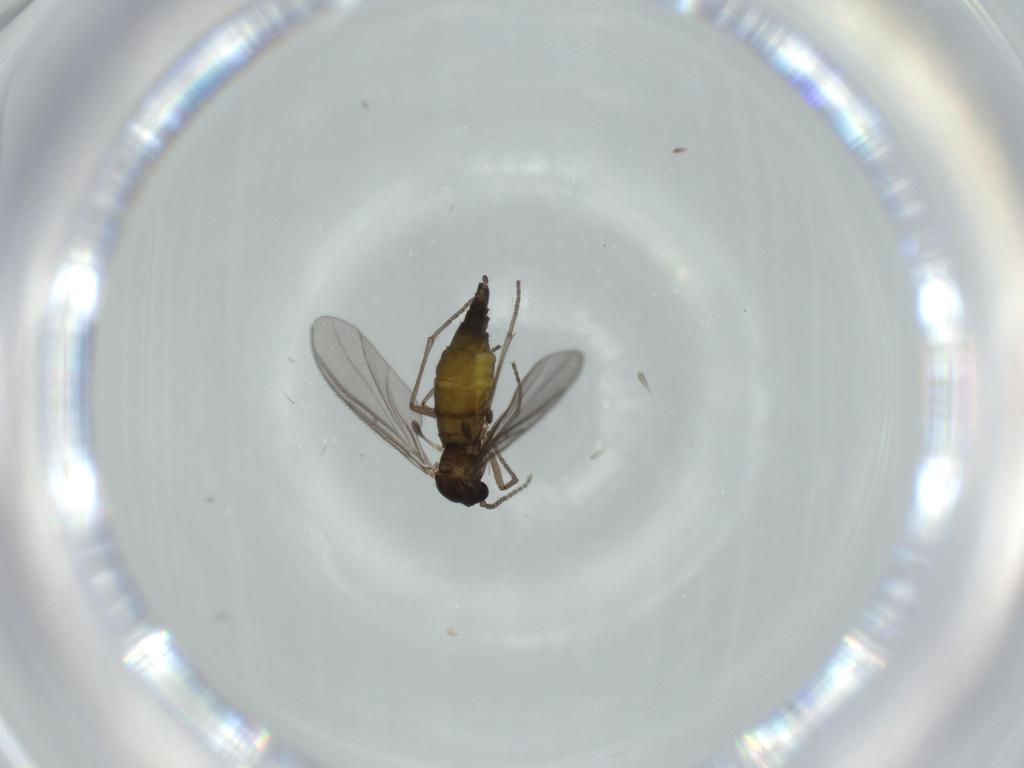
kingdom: Animalia
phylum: Arthropoda
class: Insecta
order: Diptera
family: Sciaridae
